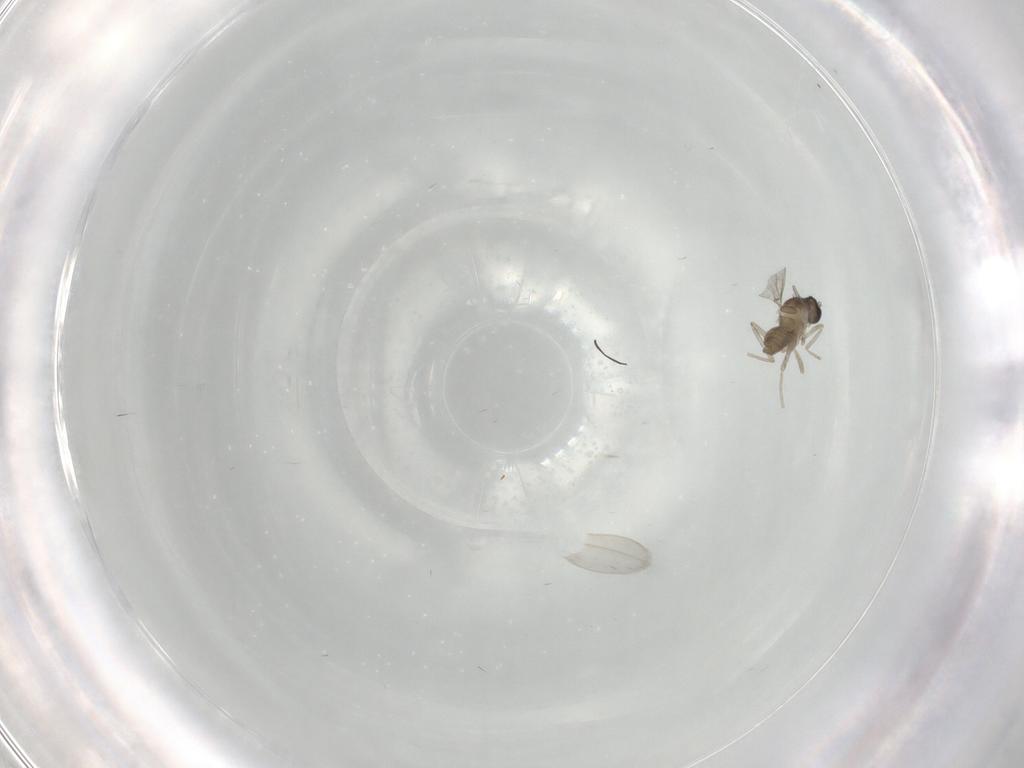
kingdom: Animalia
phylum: Arthropoda
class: Insecta
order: Diptera
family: Cecidomyiidae
